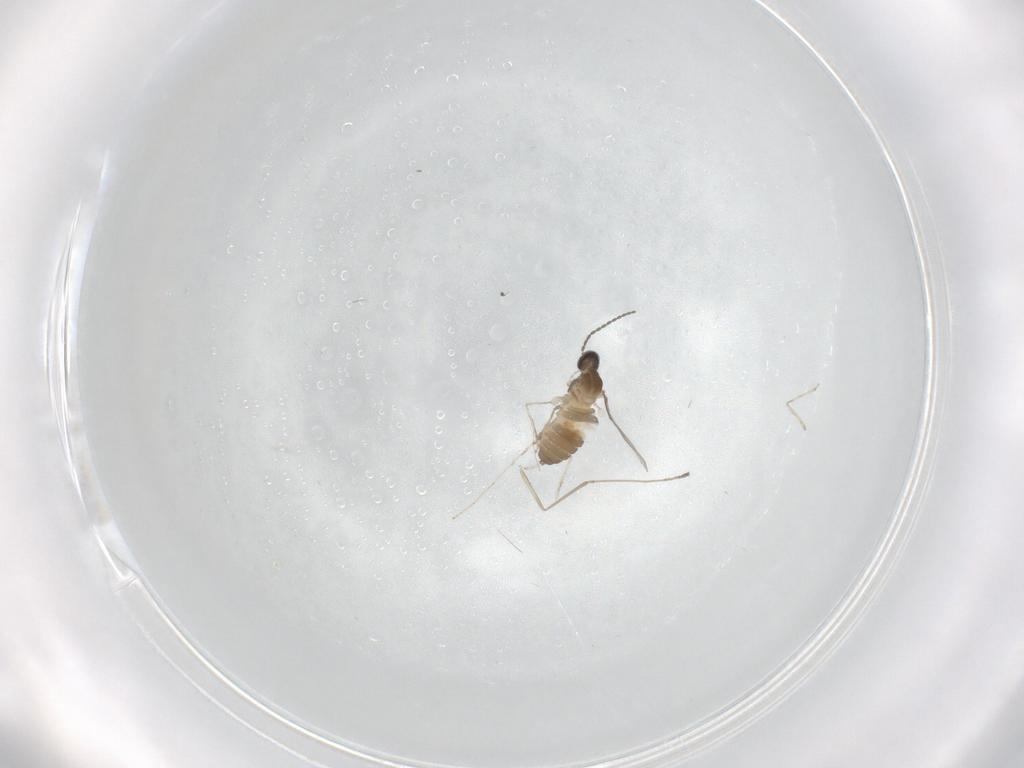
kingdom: Animalia
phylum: Arthropoda
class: Insecta
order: Diptera
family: Cecidomyiidae
